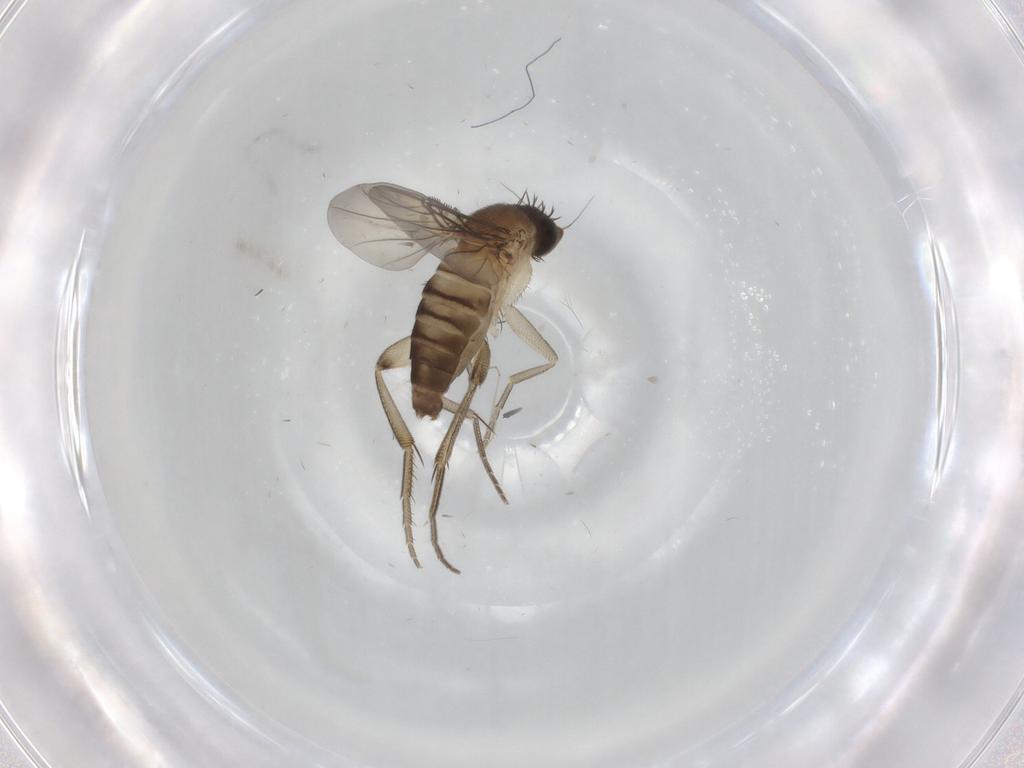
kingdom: Animalia
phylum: Arthropoda
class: Insecta
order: Diptera
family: Phoridae
